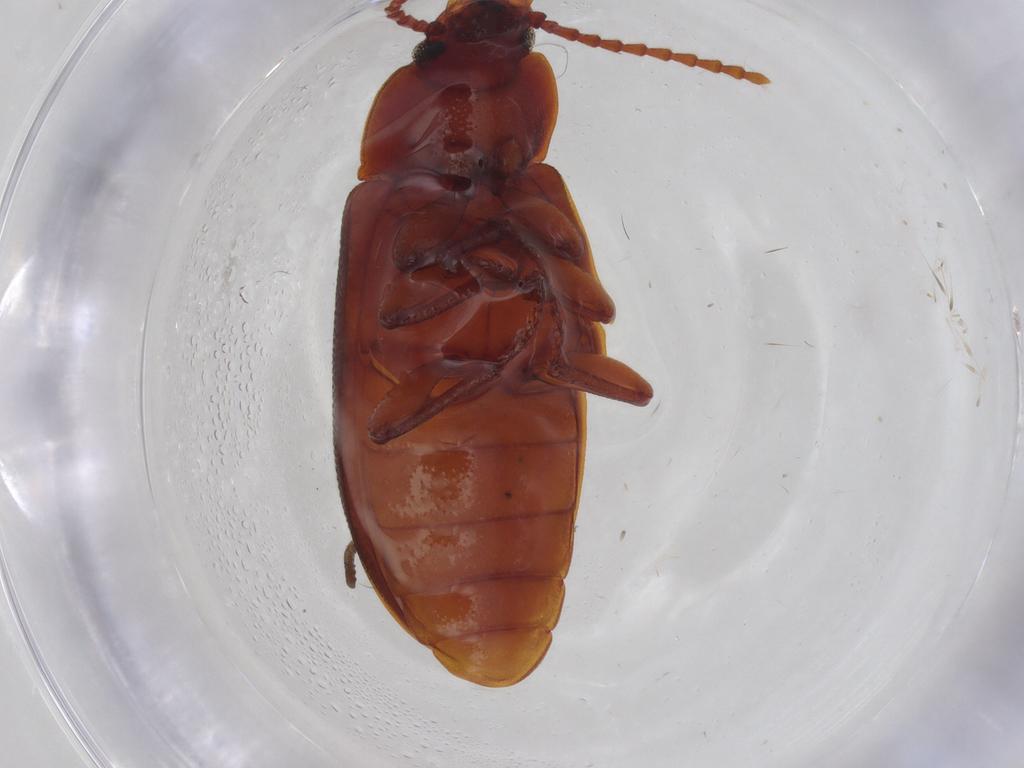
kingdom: Animalia
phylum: Arthropoda
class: Insecta
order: Coleoptera
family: Tenebrionidae
